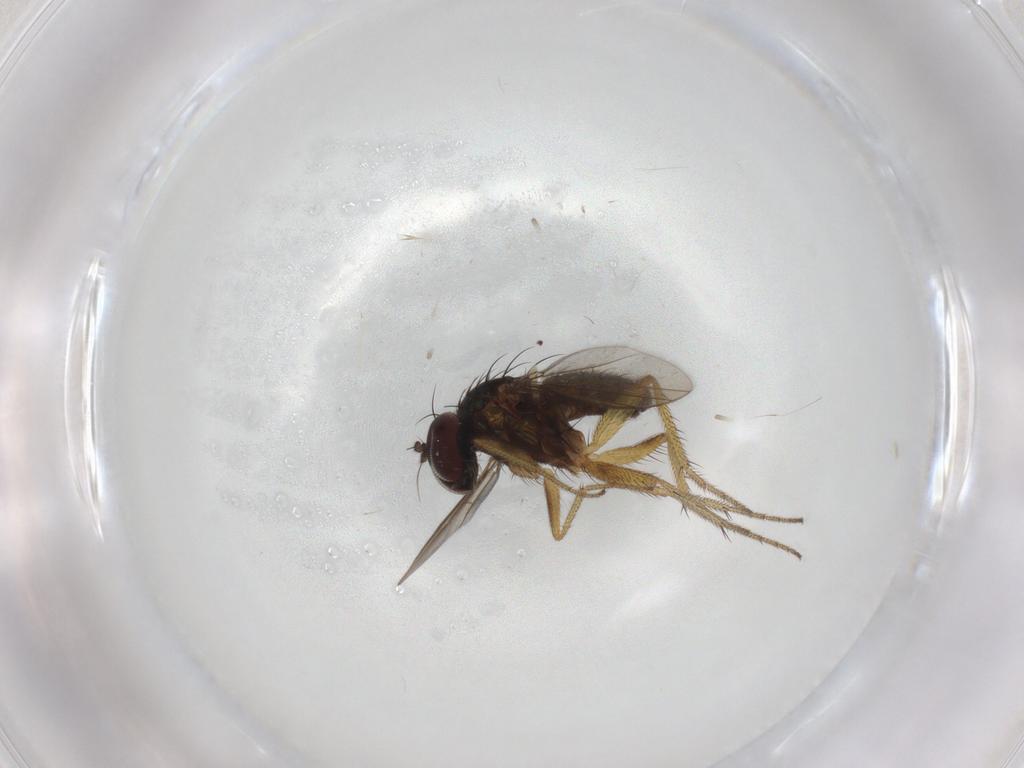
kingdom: Animalia
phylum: Arthropoda
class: Insecta
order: Diptera
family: Dolichopodidae
